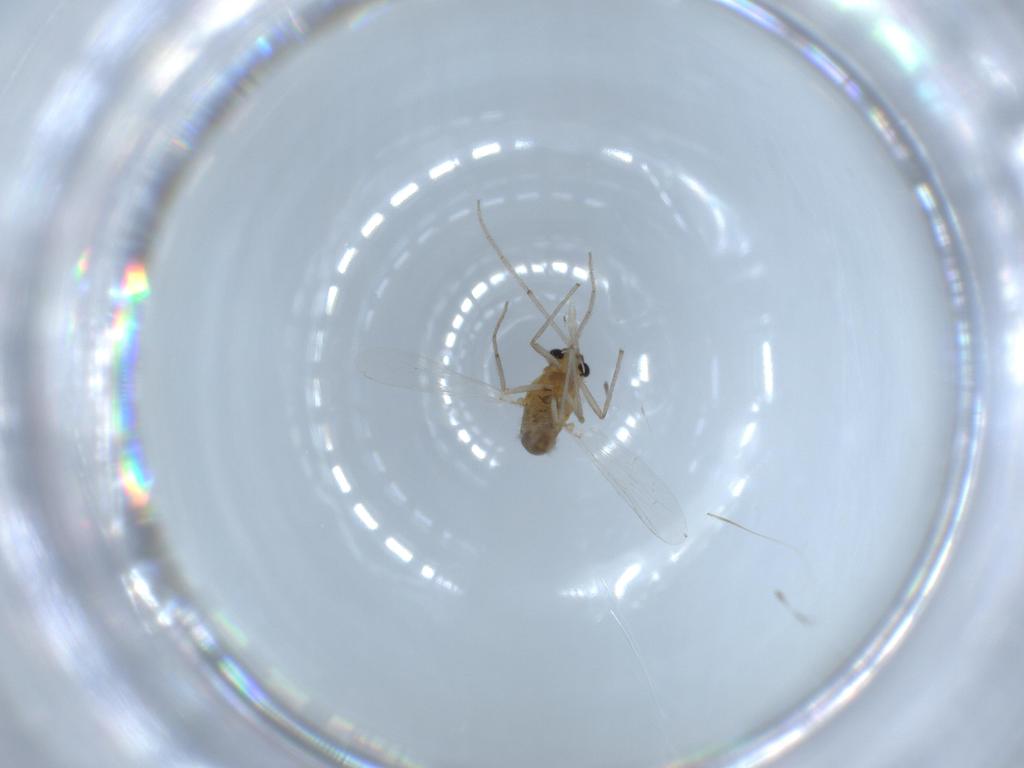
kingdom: Animalia
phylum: Arthropoda
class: Insecta
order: Diptera
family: Chironomidae
